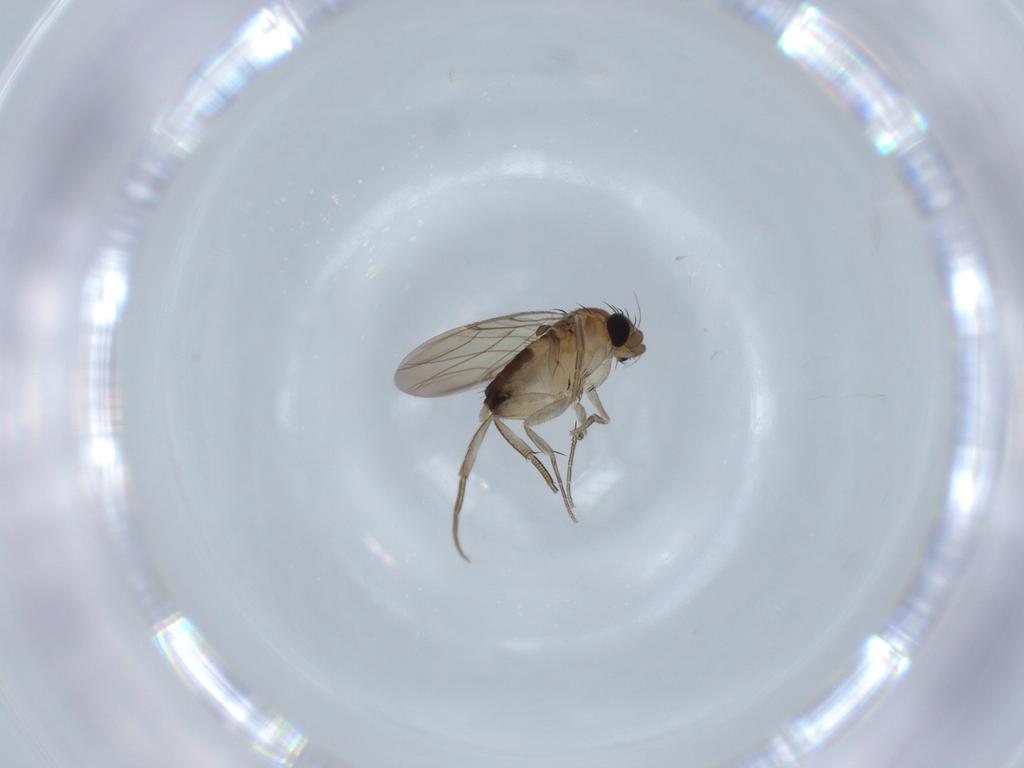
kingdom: Animalia
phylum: Arthropoda
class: Insecta
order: Diptera
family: Phoridae
